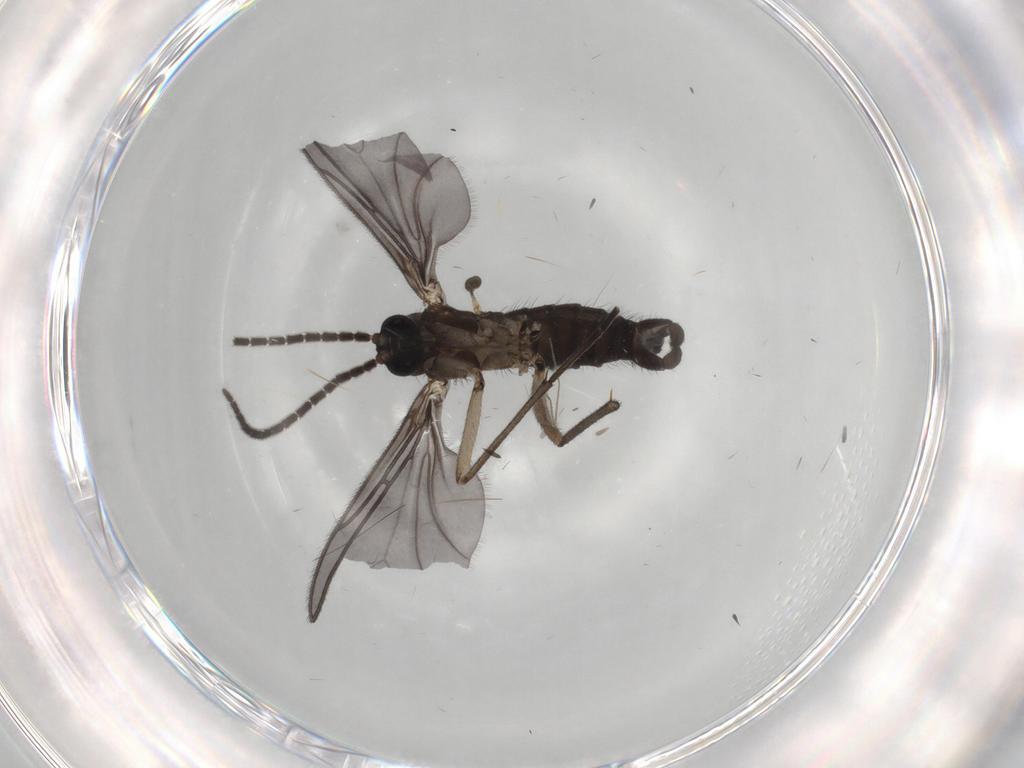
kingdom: Animalia
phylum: Arthropoda
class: Insecta
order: Diptera
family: Sciaridae
